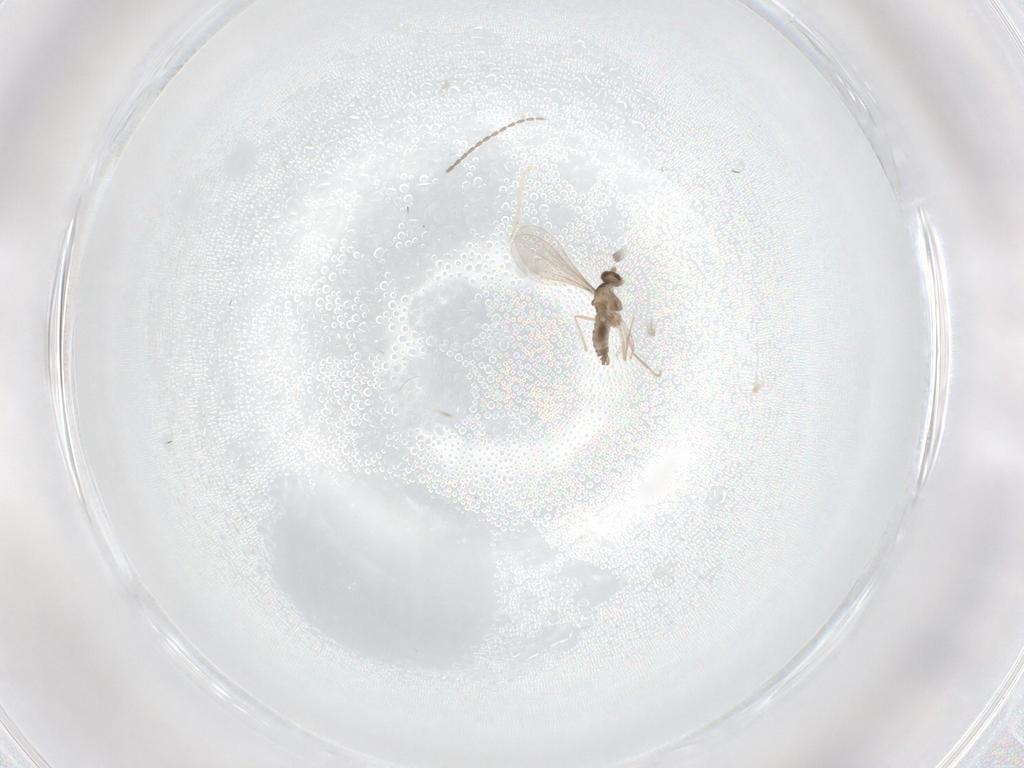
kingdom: Animalia
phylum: Arthropoda
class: Insecta
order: Diptera
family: Cecidomyiidae
